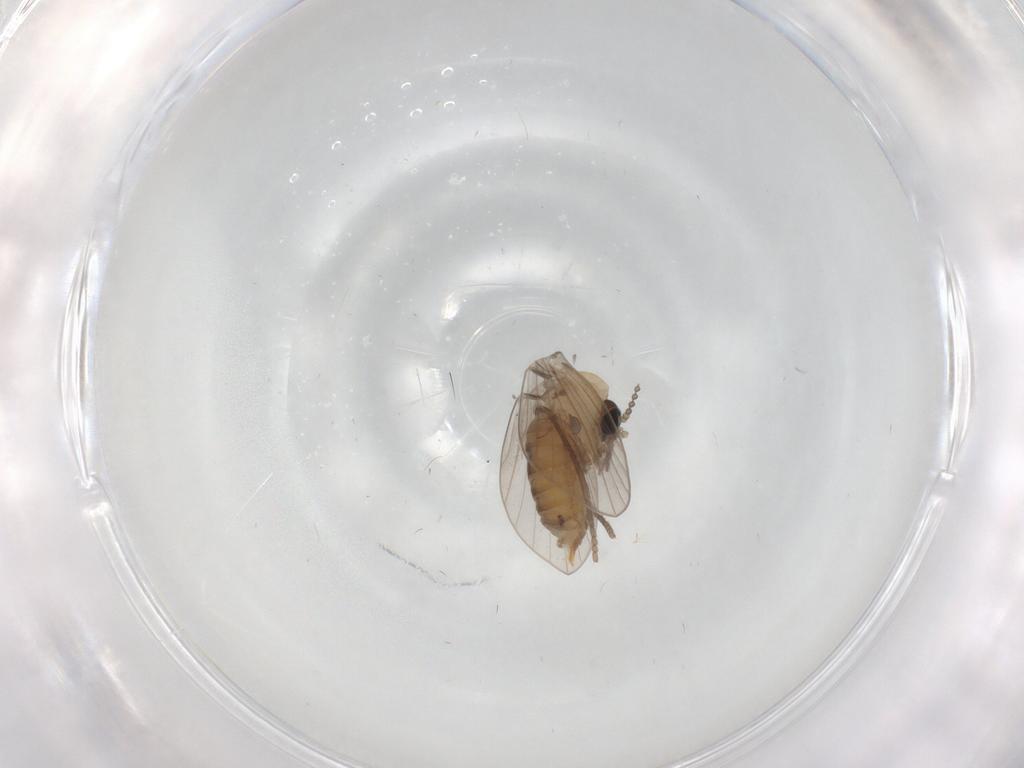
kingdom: Animalia
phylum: Arthropoda
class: Insecta
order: Diptera
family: Psychodidae
